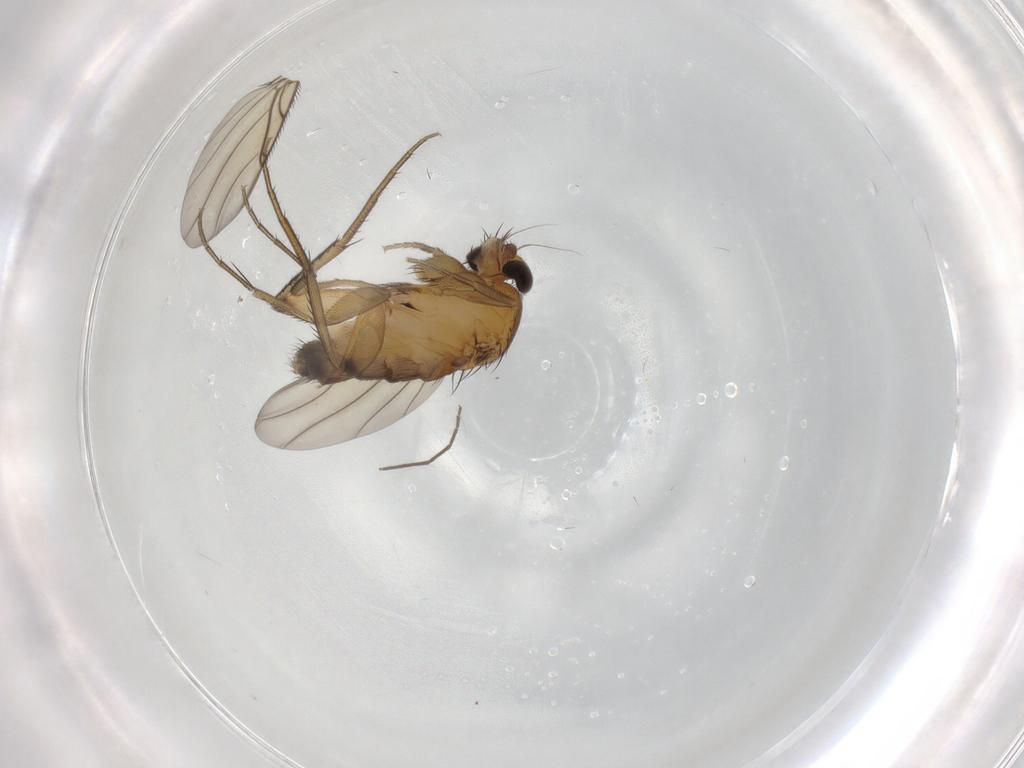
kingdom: Animalia
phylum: Arthropoda
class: Insecta
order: Diptera
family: Phoridae
